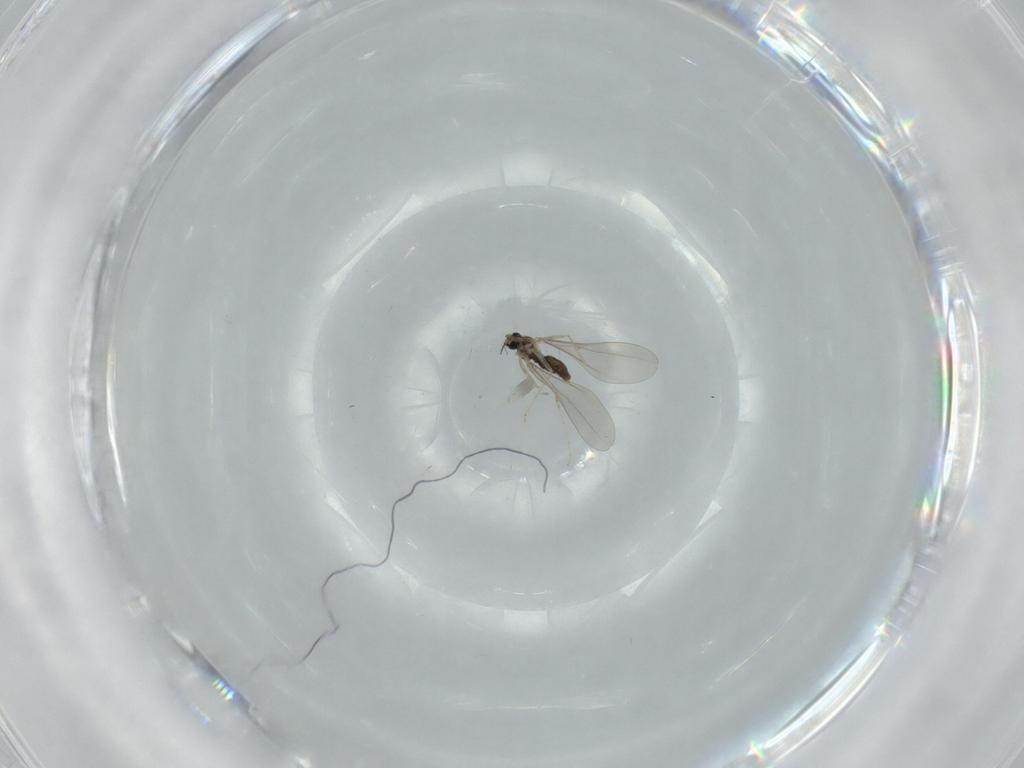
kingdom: Animalia
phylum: Arthropoda
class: Insecta
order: Diptera
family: Cecidomyiidae
